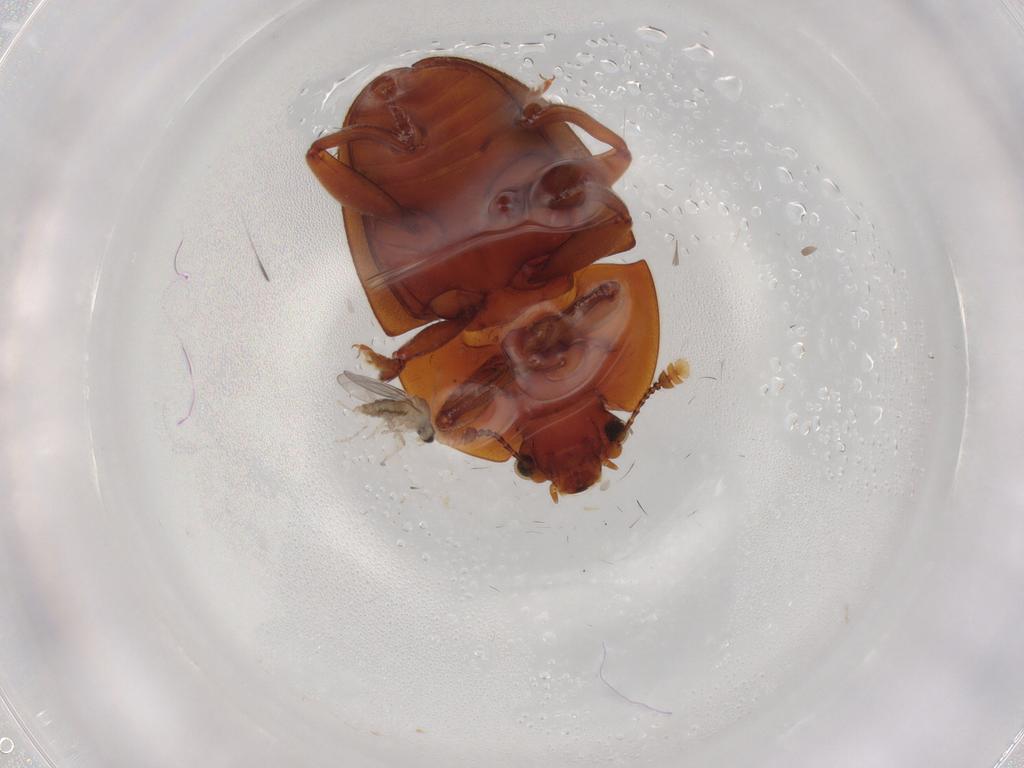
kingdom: Animalia
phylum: Arthropoda
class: Insecta
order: Diptera
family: Cecidomyiidae
